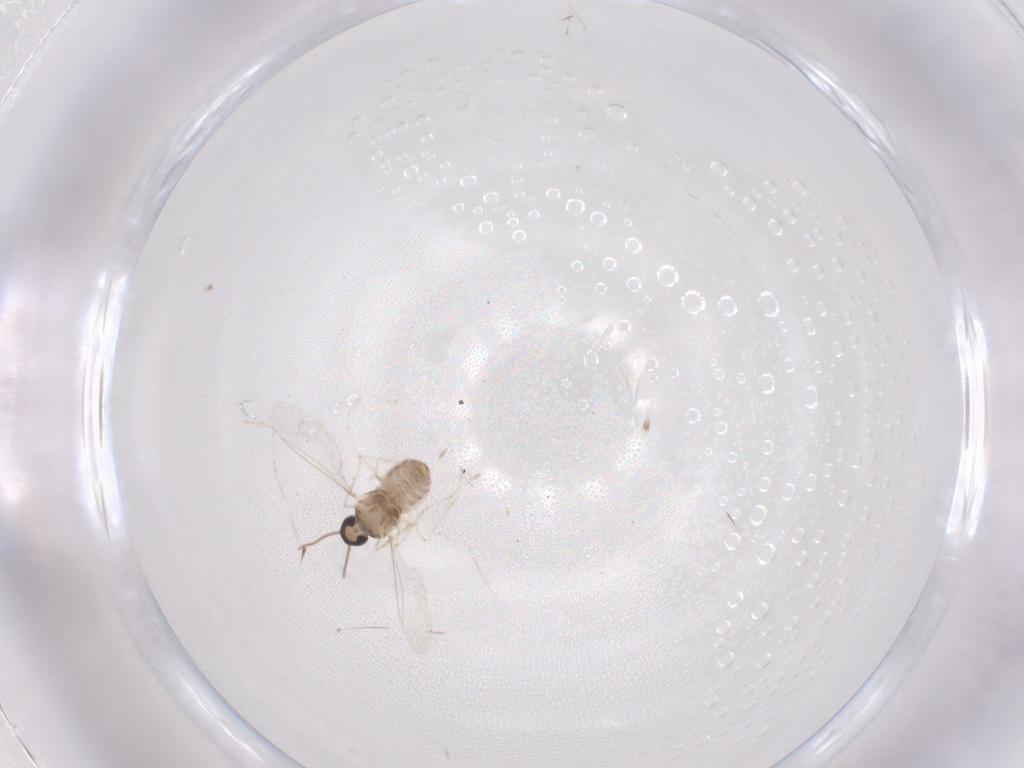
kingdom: Animalia
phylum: Arthropoda
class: Insecta
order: Diptera
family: Cecidomyiidae
